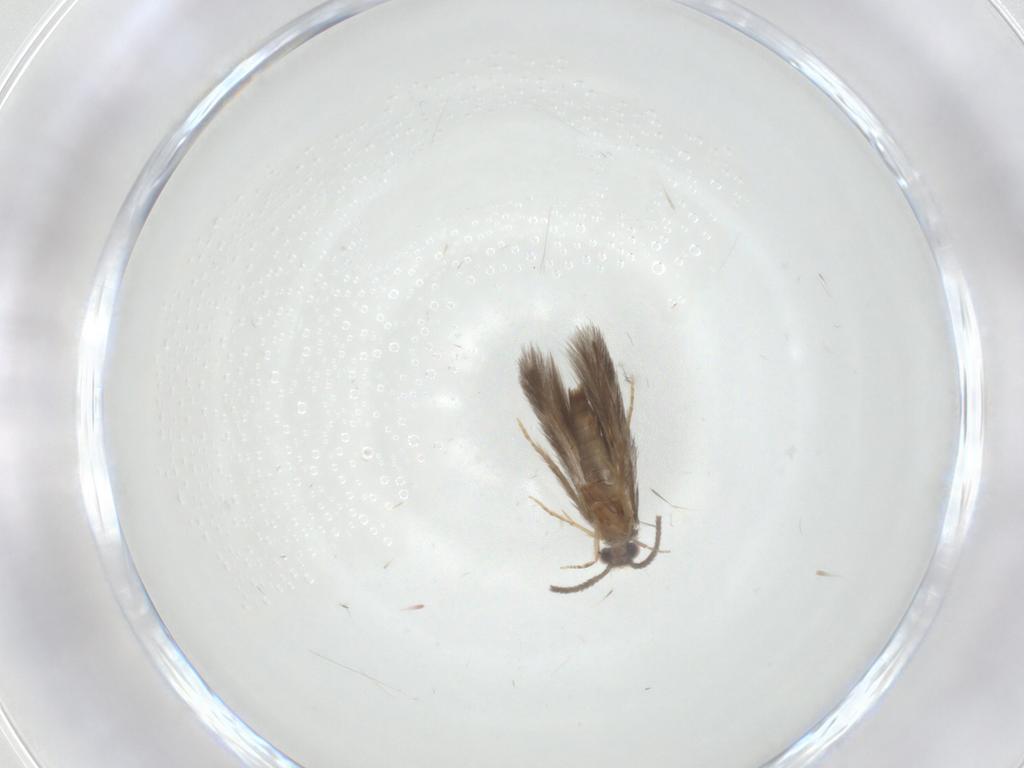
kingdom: Animalia
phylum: Arthropoda
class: Insecta
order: Trichoptera
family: Hydroptilidae
